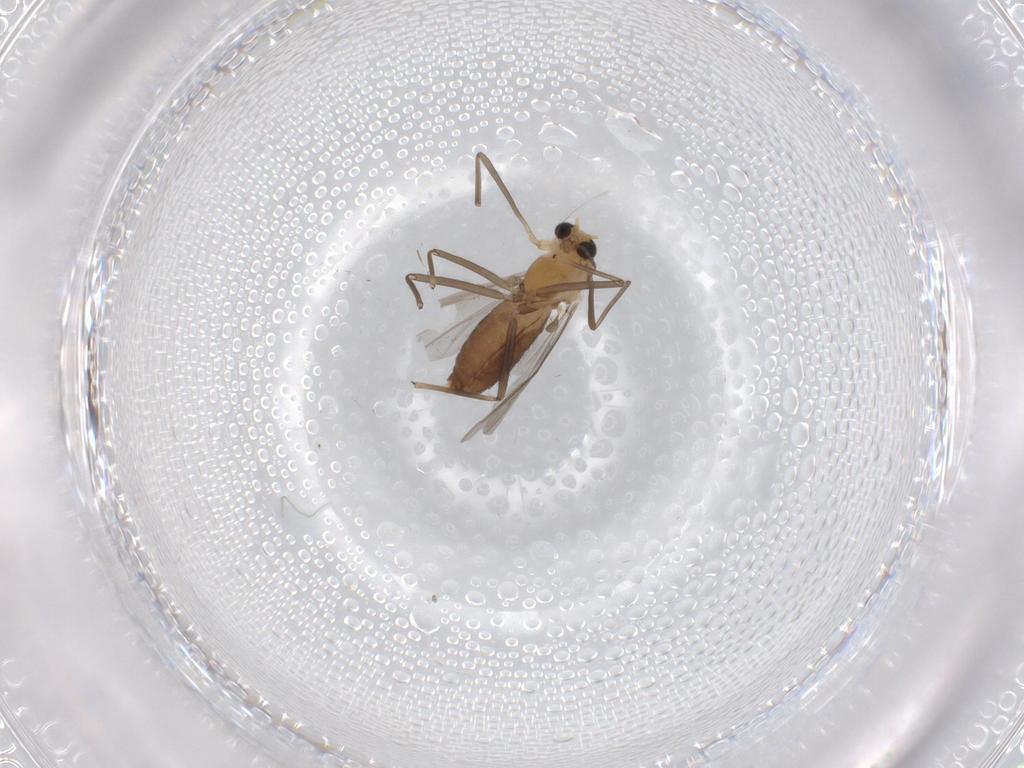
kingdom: Animalia
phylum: Arthropoda
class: Insecta
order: Diptera
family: Chironomidae
